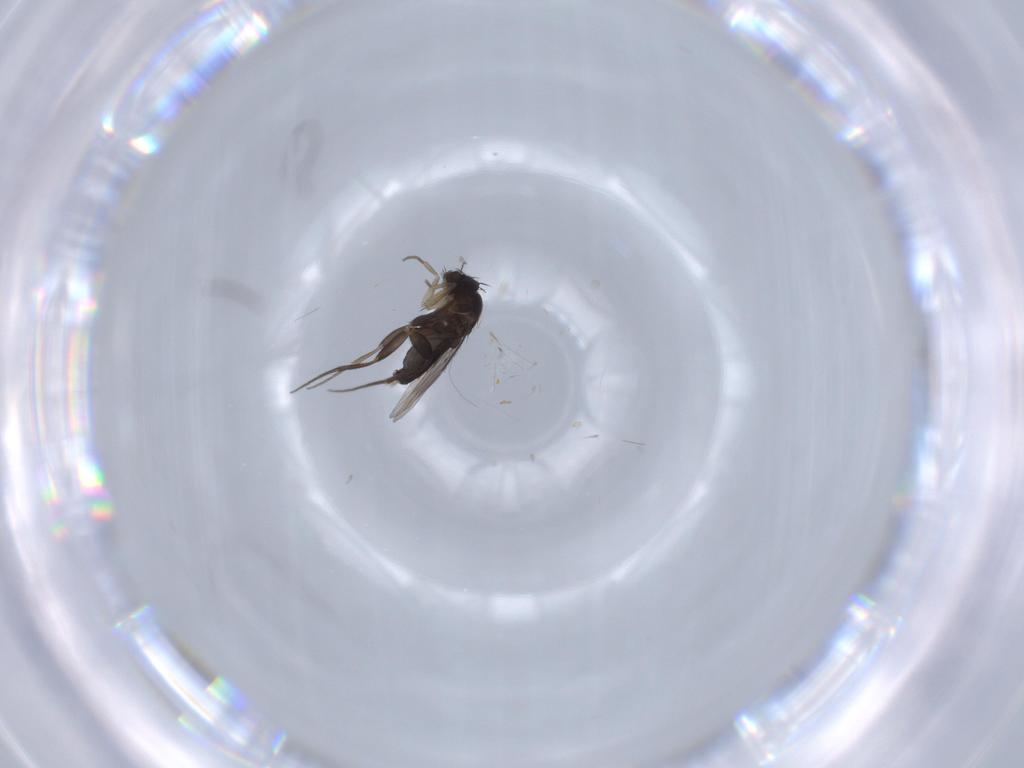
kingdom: Animalia
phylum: Arthropoda
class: Insecta
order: Diptera
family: Phoridae
